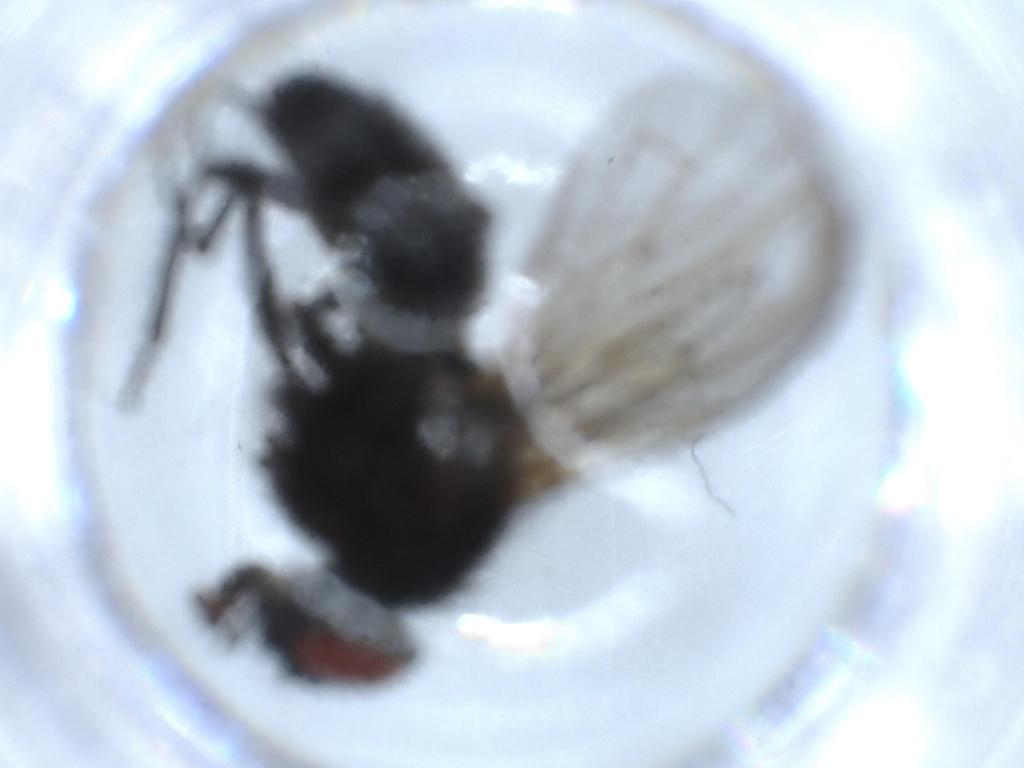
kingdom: Animalia
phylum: Arthropoda
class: Insecta
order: Diptera
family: Muscidae
